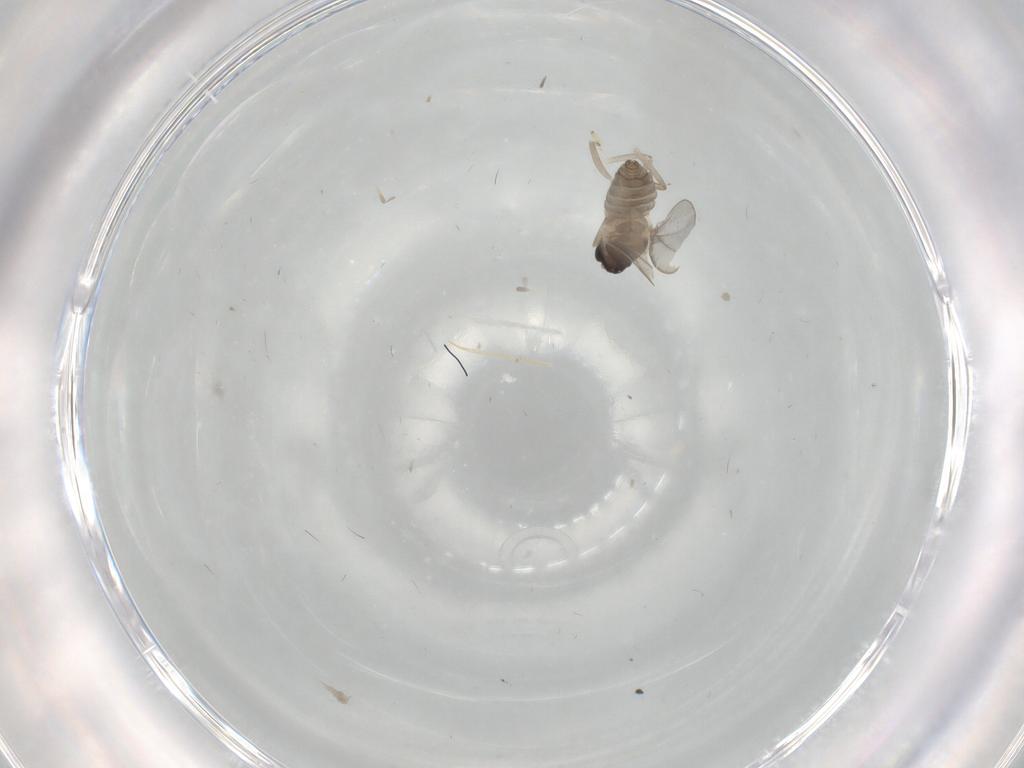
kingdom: Animalia
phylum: Arthropoda
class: Insecta
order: Diptera
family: Cecidomyiidae
